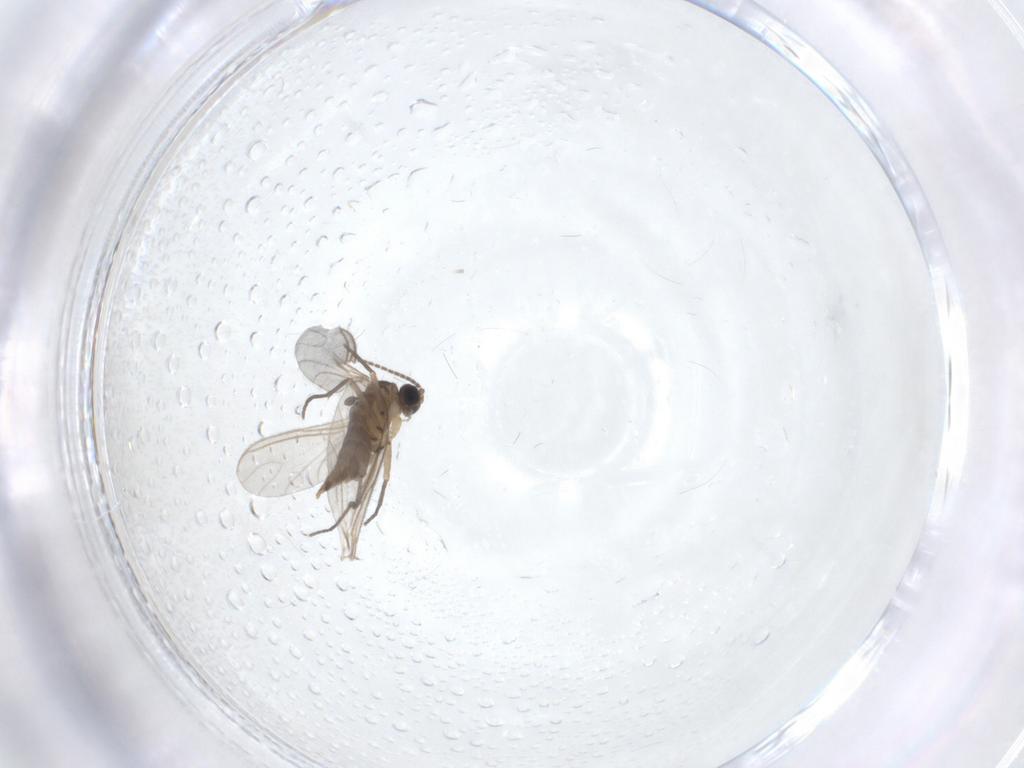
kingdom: Animalia
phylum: Arthropoda
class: Insecta
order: Diptera
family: Sciaridae
